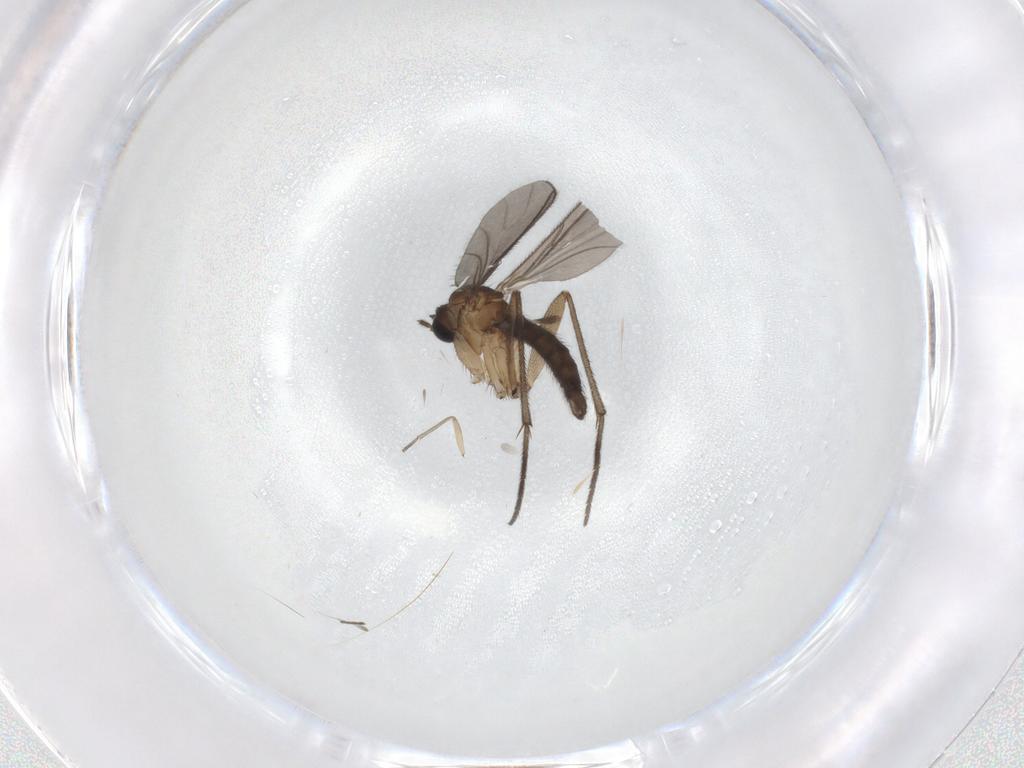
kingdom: Animalia
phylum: Arthropoda
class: Insecta
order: Diptera
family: Sciaridae
